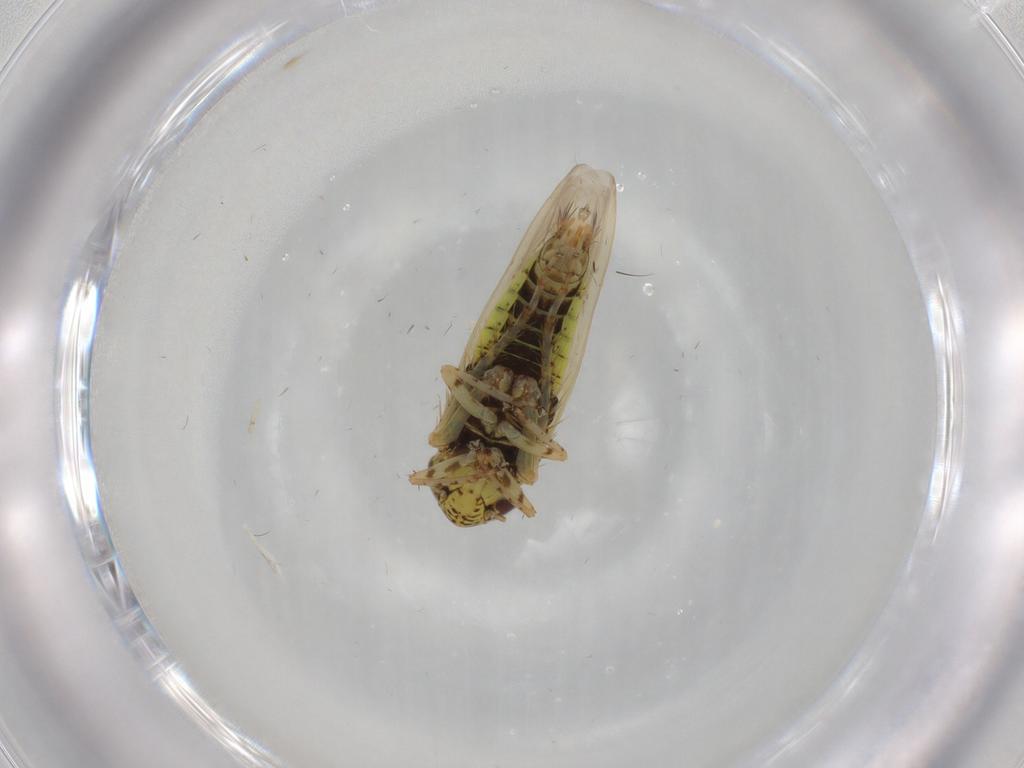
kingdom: Animalia
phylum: Arthropoda
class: Insecta
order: Hemiptera
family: Cicadellidae
